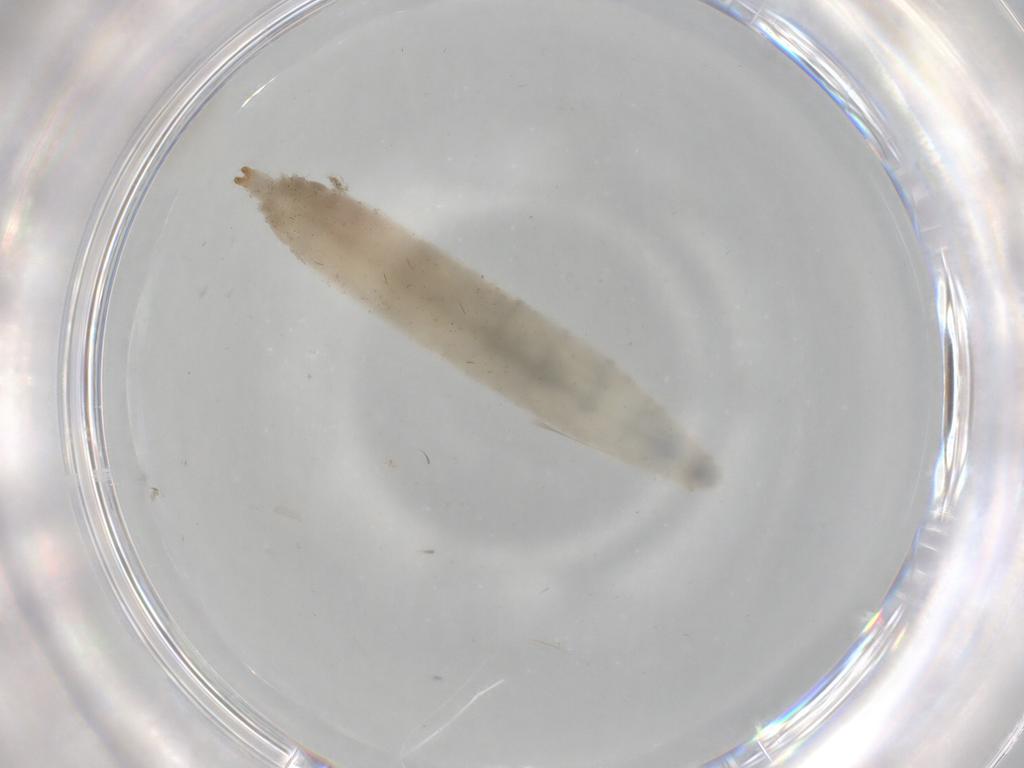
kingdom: Animalia
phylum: Arthropoda
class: Insecta
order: Diptera
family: Drosophilidae
